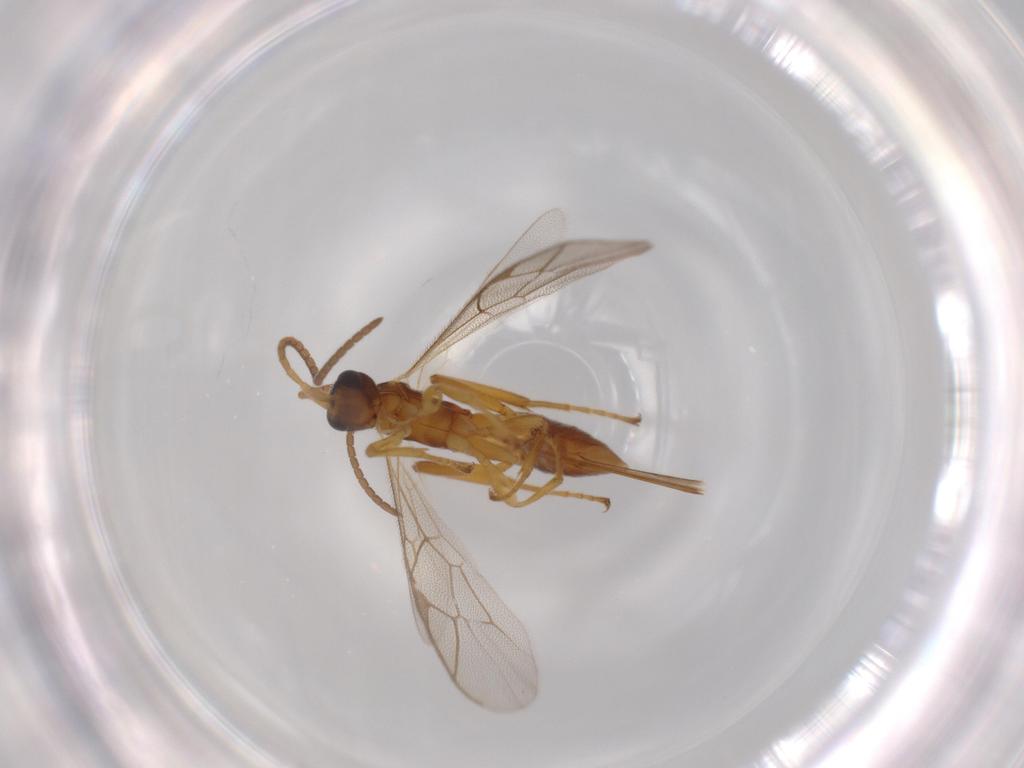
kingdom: Animalia
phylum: Arthropoda
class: Insecta
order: Hymenoptera
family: Ichneumonidae
